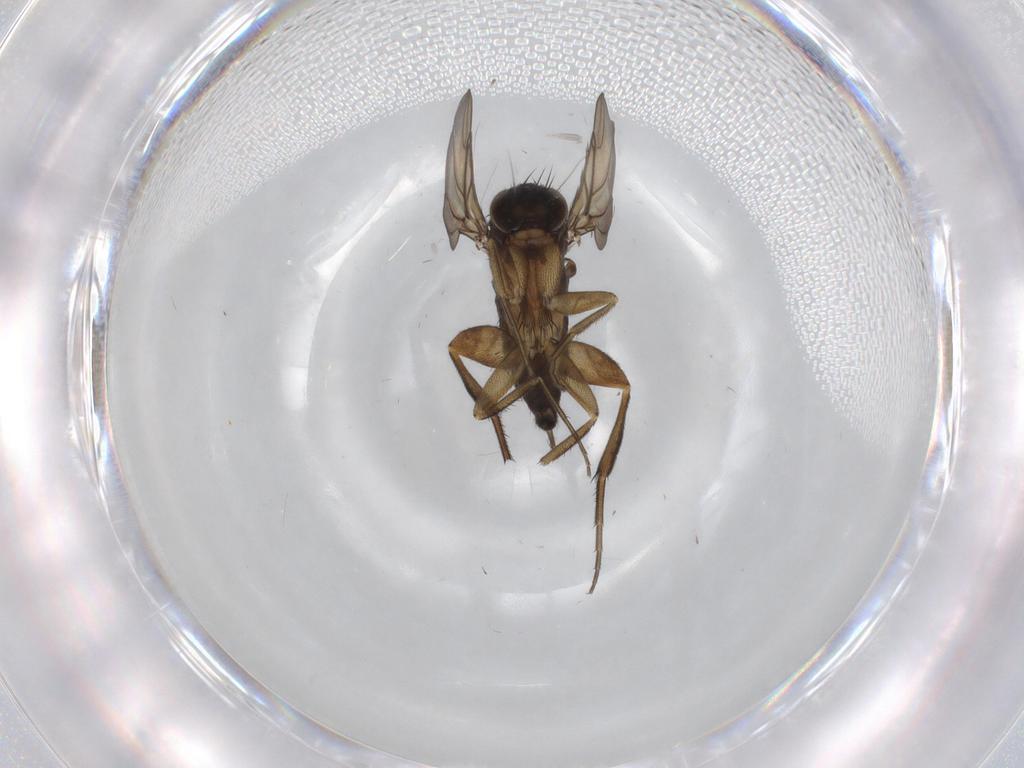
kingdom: Animalia
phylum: Arthropoda
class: Insecta
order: Diptera
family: Phoridae
